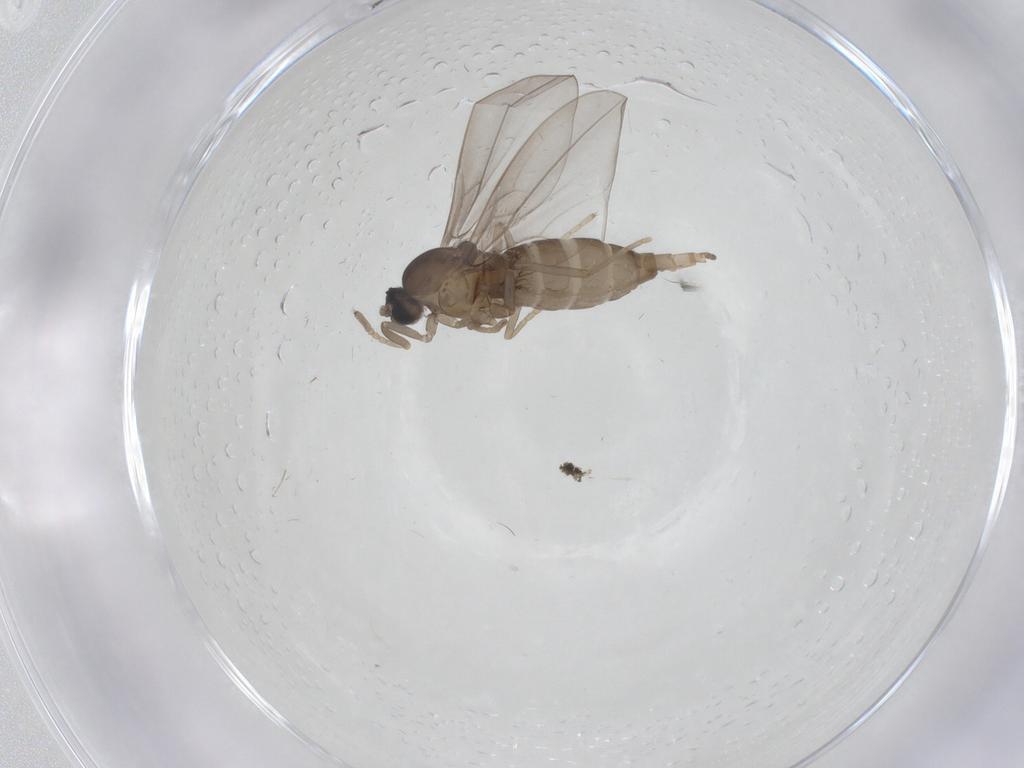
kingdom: Animalia
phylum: Arthropoda
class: Insecta
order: Diptera
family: Cecidomyiidae
